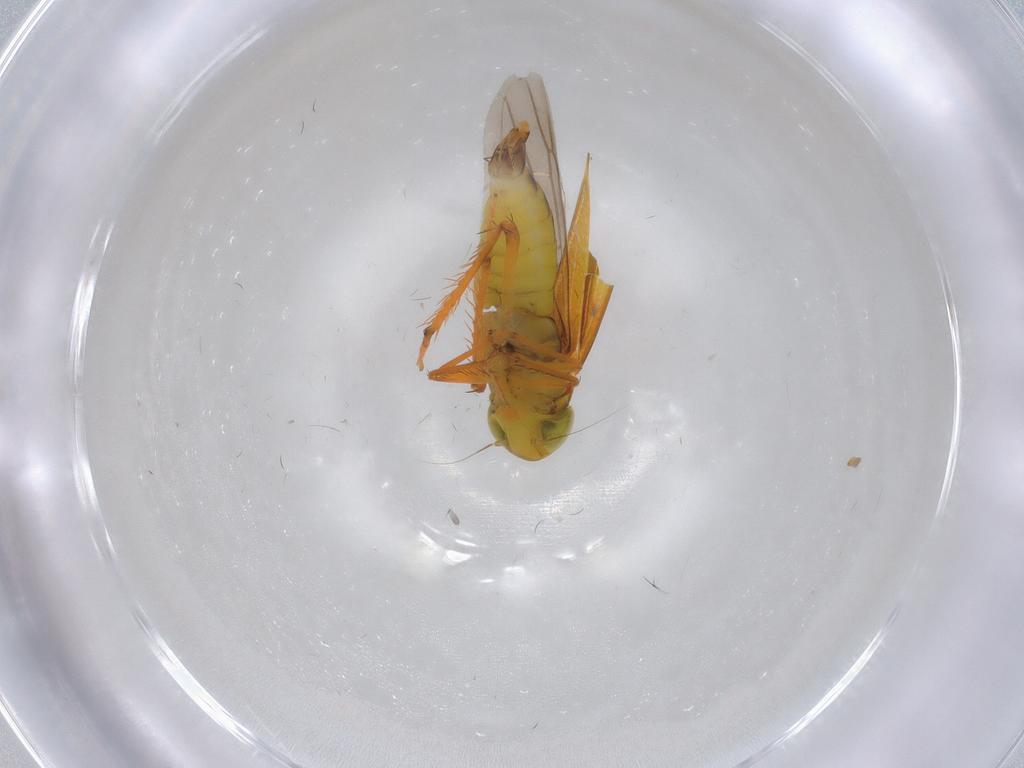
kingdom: Animalia
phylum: Arthropoda
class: Insecta
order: Hemiptera
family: Cicadellidae
